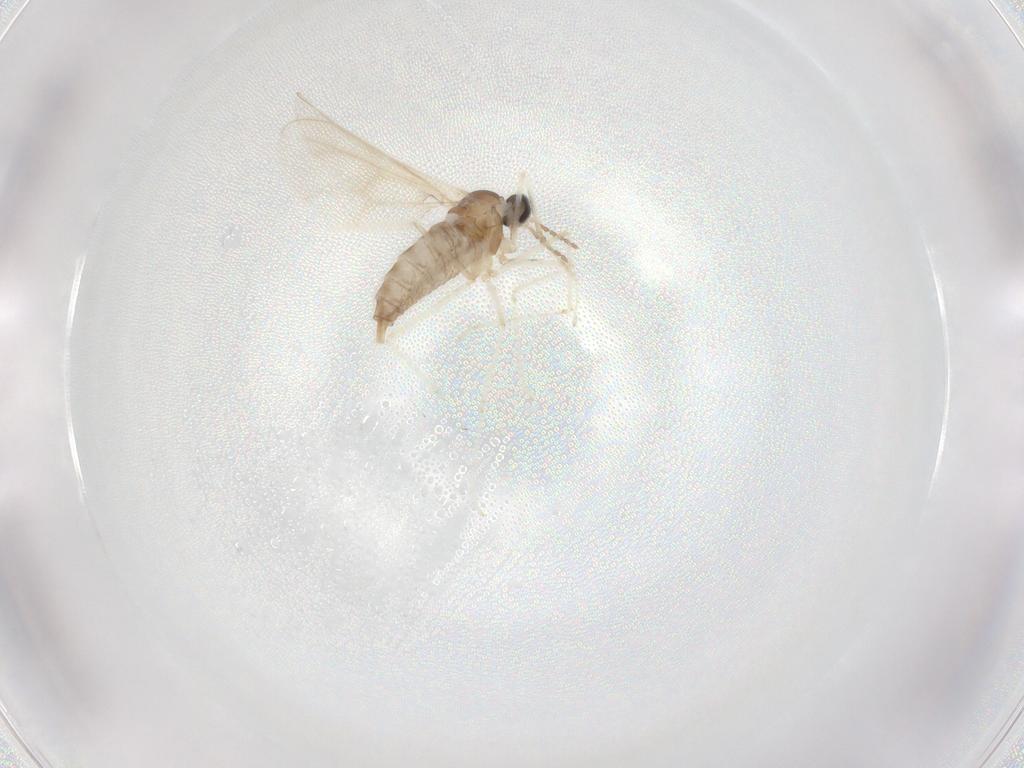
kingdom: Animalia
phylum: Arthropoda
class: Insecta
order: Diptera
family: Cecidomyiidae
